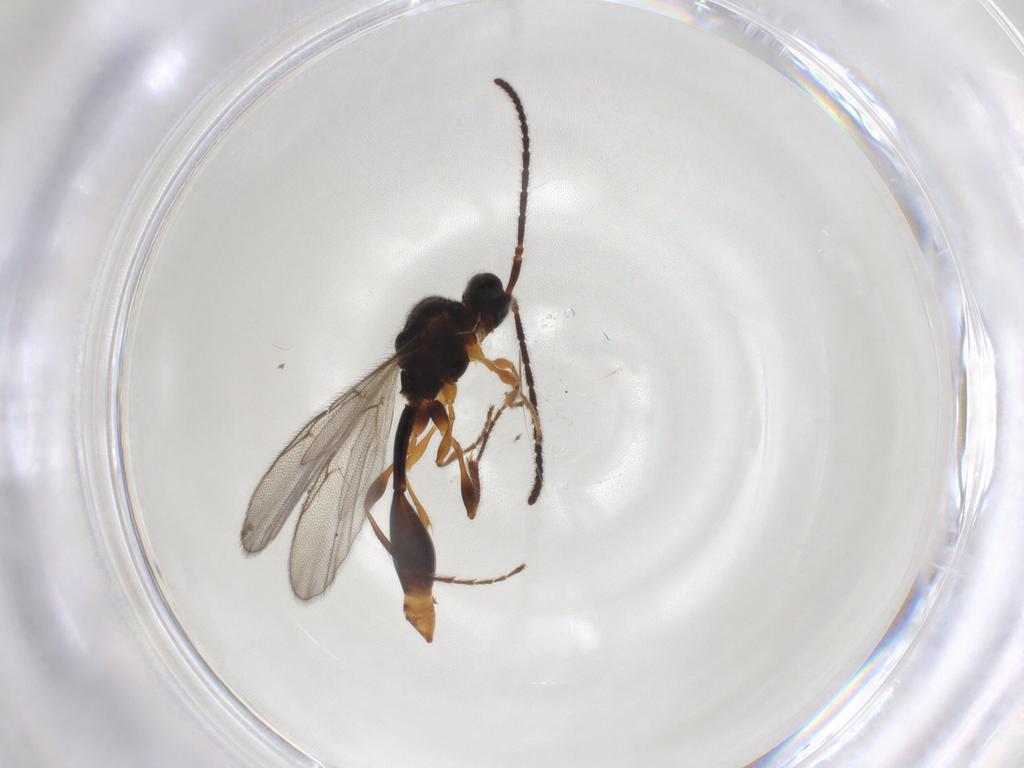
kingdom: Animalia
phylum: Arthropoda
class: Insecta
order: Hymenoptera
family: Diapriidae
